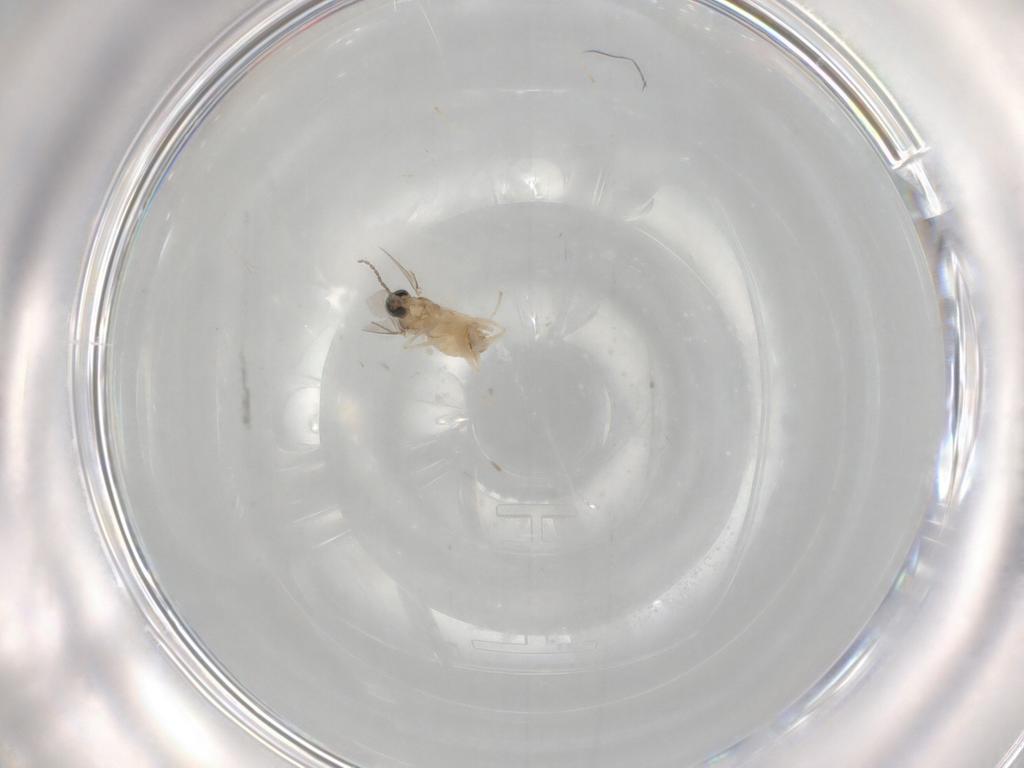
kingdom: Animalia
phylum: Arthropoda
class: Insecta
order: Diptera
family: Cecidomyiidae
